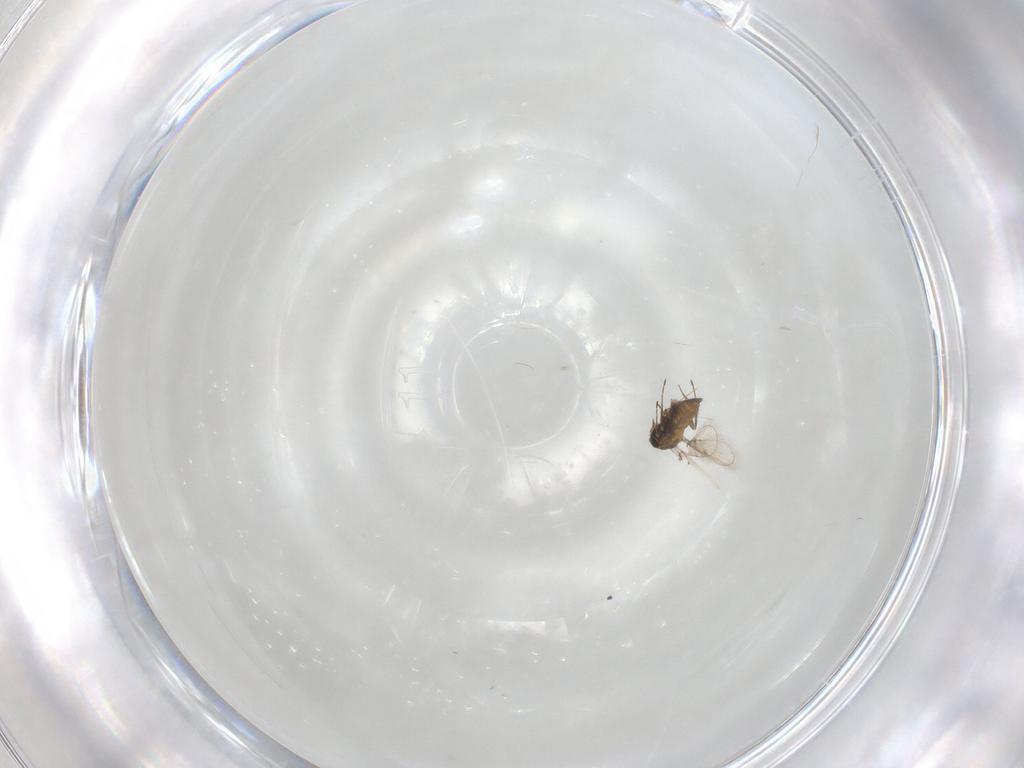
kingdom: Animalia
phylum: Arthropoda
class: Insecta
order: Hymenoptera
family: Trichogrammatidae
